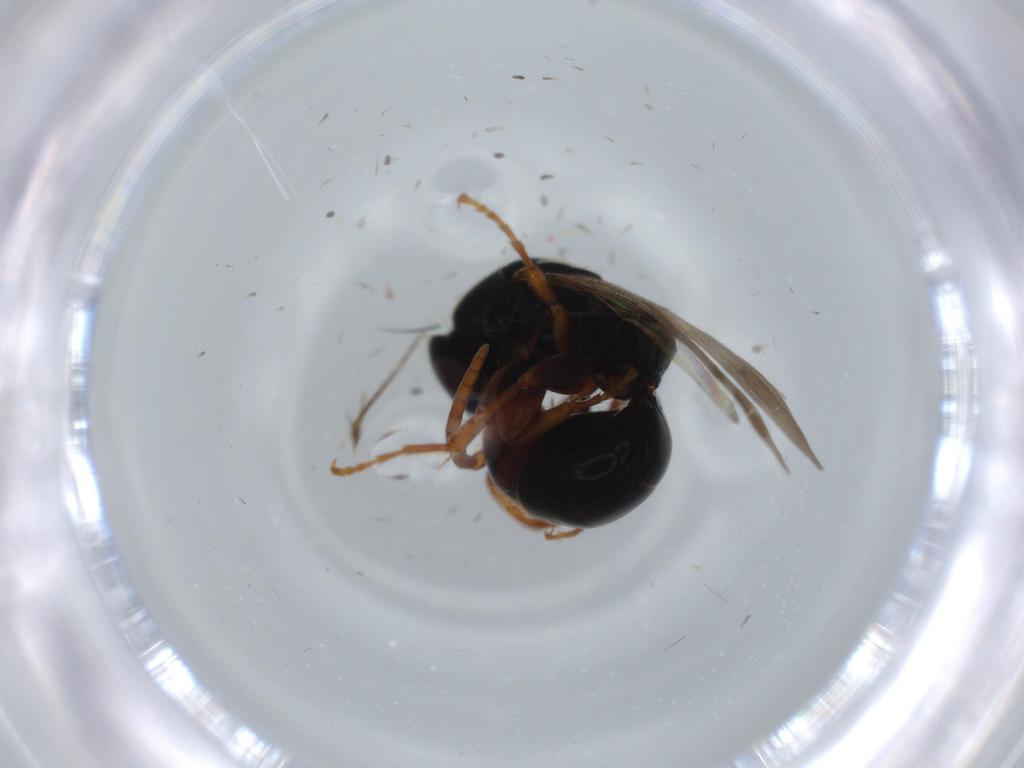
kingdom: Animalia
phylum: Arthropoda
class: Insecta
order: Hymenoptera
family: Bethylidae
